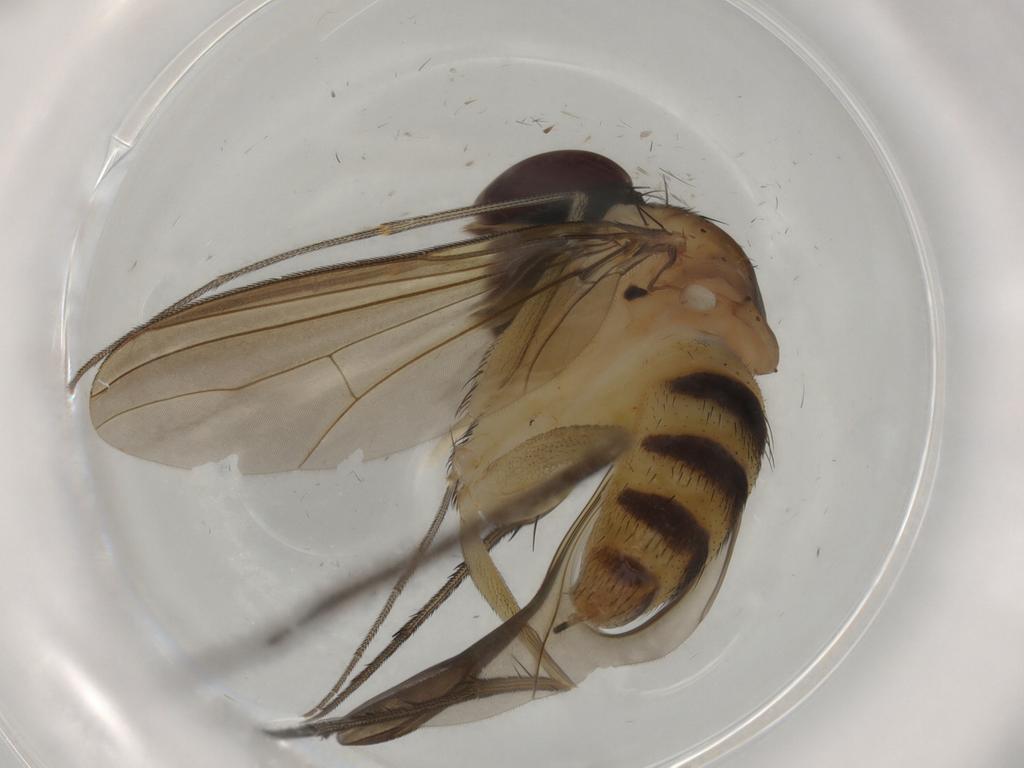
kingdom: Animalia
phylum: Arthropoda
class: Insecta
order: Diptera
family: Dolichopodidae
